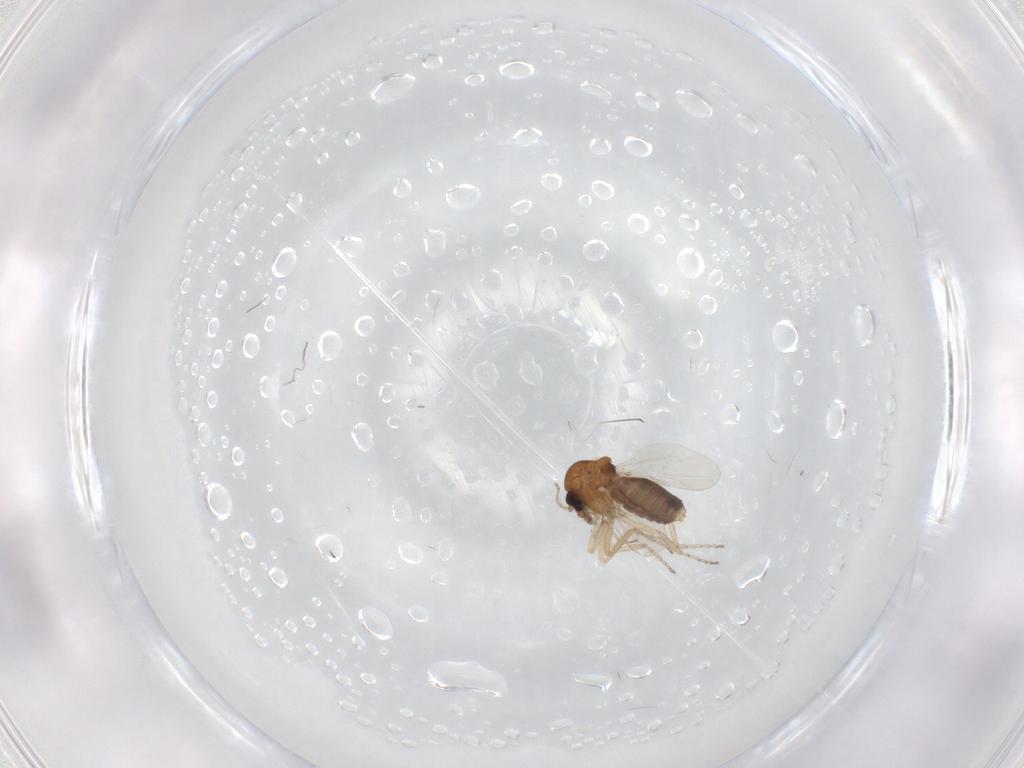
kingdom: Animalia
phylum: Arthropoda
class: Insecta
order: Diptera
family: Ceratopogonidae
